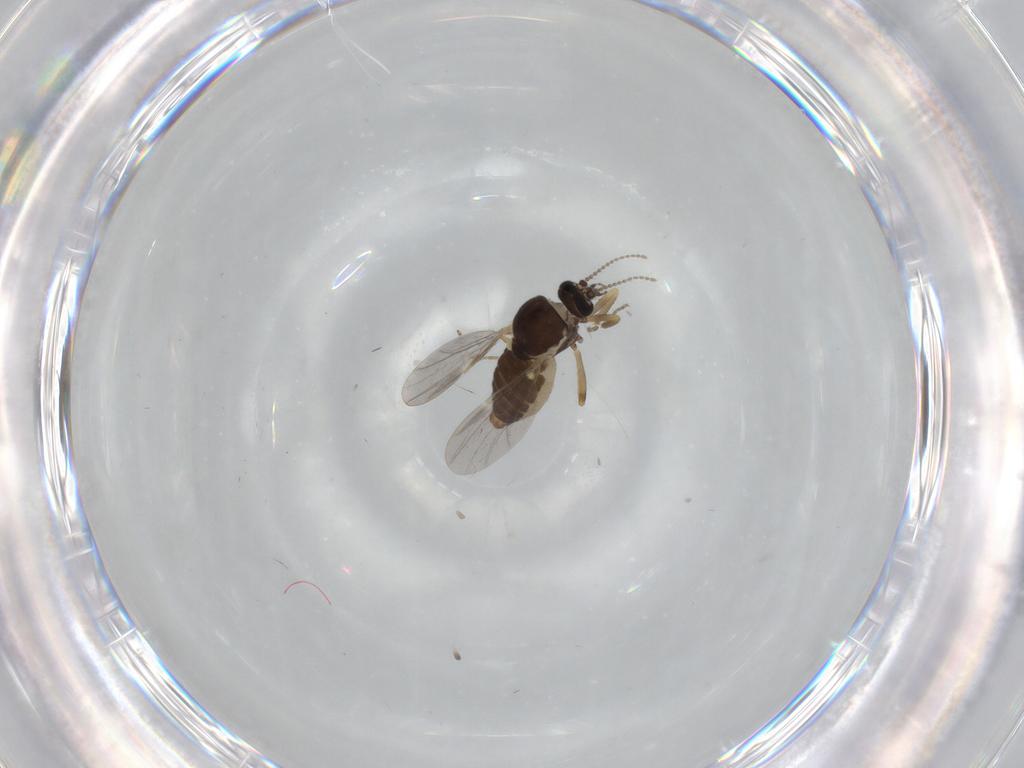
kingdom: Animalia
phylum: Arthropoda
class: Insecta
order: Diptera
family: Ceratopogonidae
